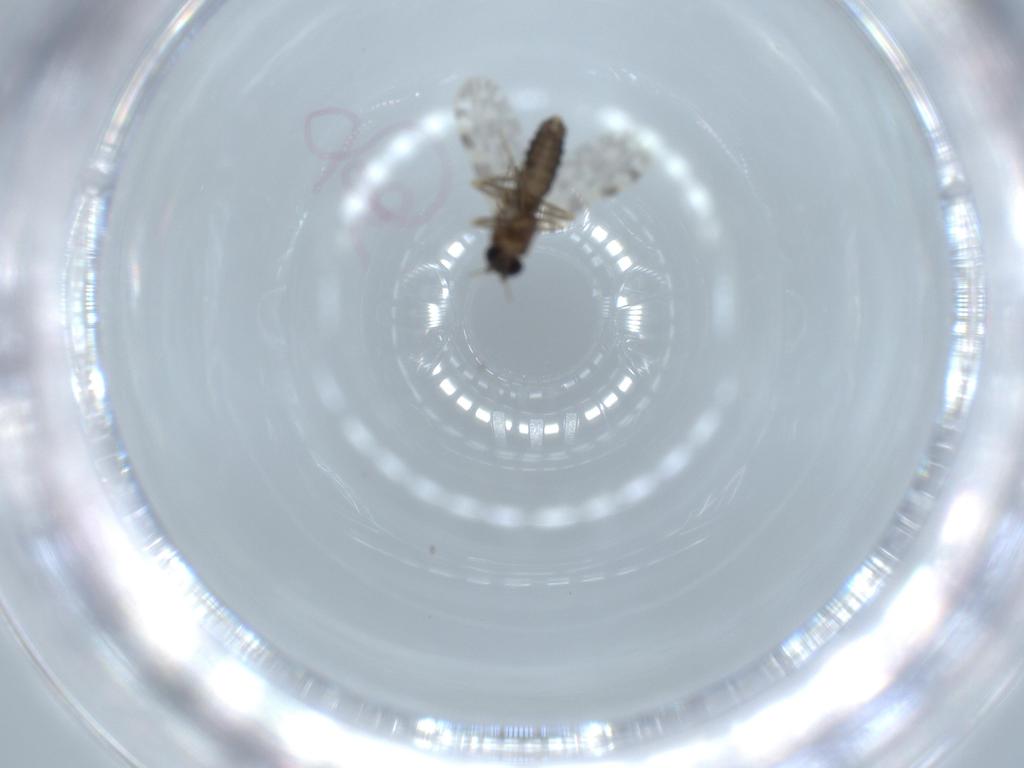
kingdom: Animalia
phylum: Arthropoda
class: Insecta
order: Diptera
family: Ceratopogonidae
